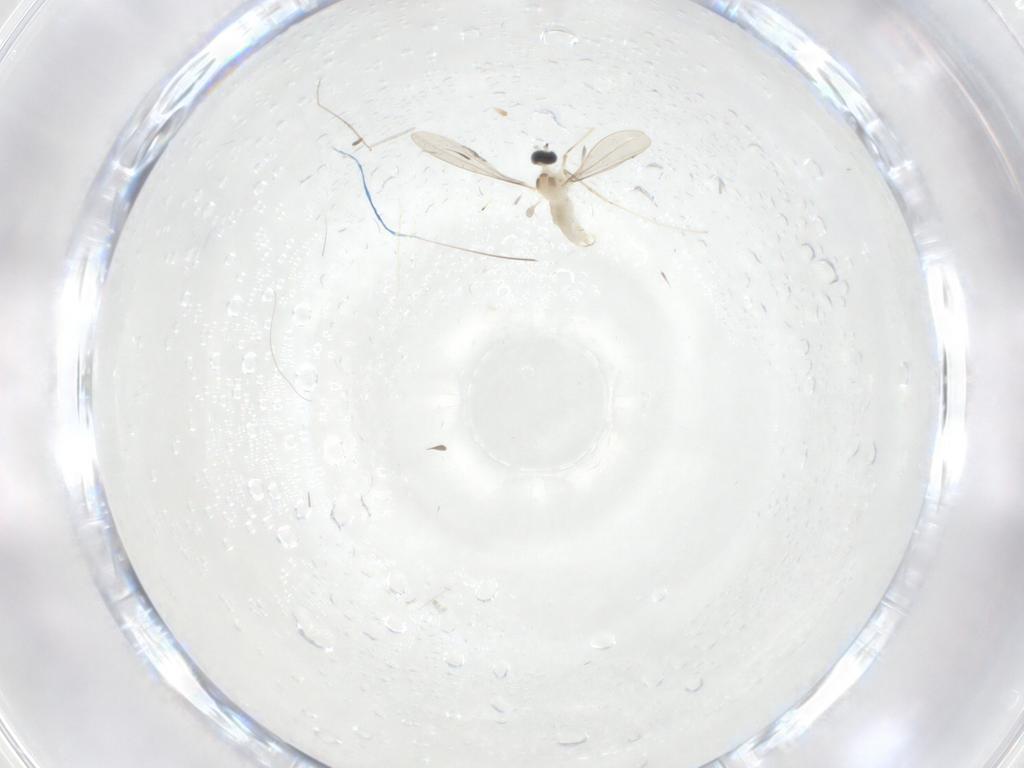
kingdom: Animalia
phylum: Arthropoda
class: Insecta
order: Diptera
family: Cecidomyiidae
